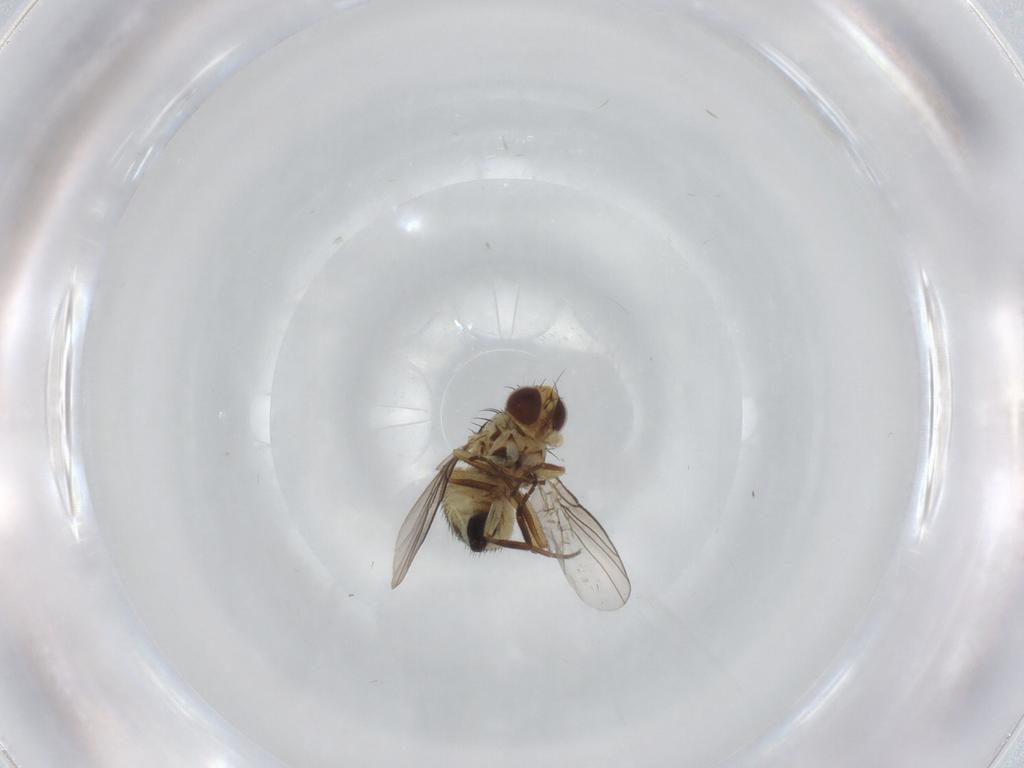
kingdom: Animalia
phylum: Arthropoda
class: Insecta
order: Diptera
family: Agromyzidae
